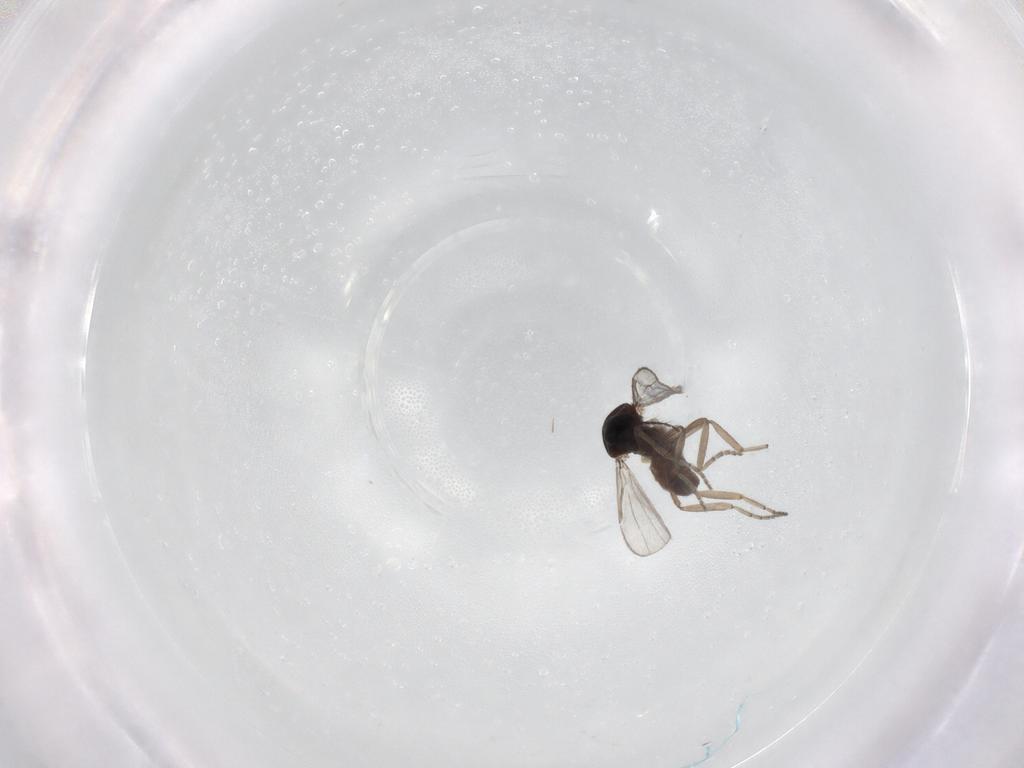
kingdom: Animalia
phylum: Arthropoda
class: Insecta
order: Diptera
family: Ceratopogonidae
